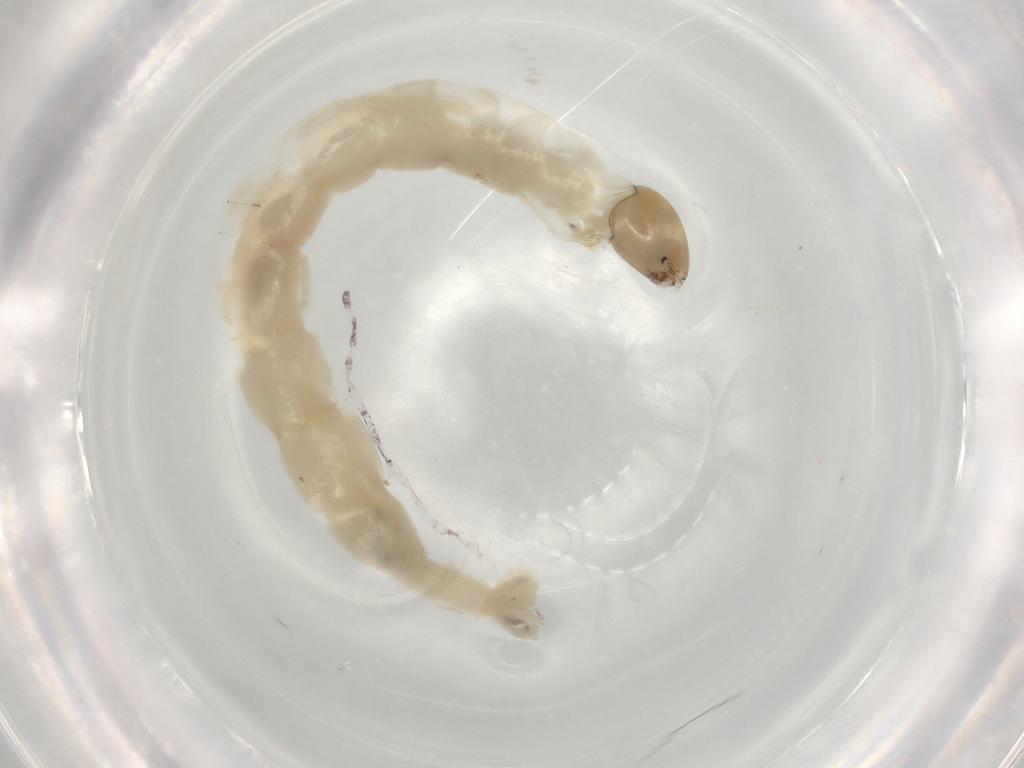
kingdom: Animalia
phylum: Arthropoda
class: Insecta
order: Diptera
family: Chironomidae
